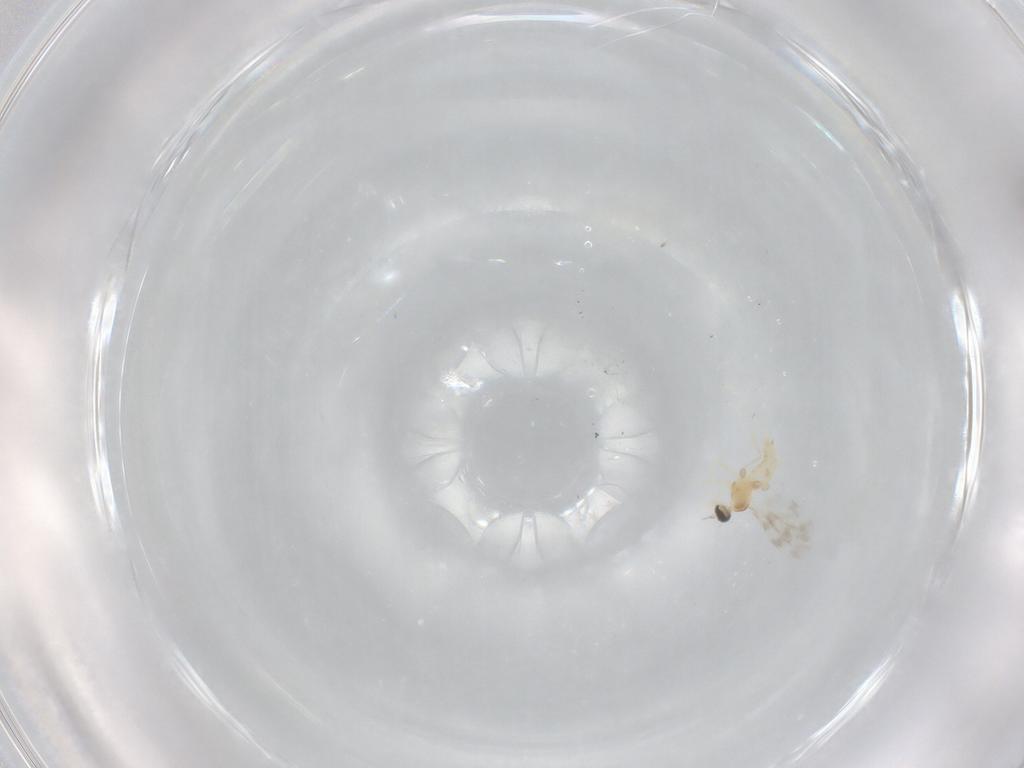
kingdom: Animalia
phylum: Arthropoda
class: Insecta
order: Diptera
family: Cecidomyiidae
